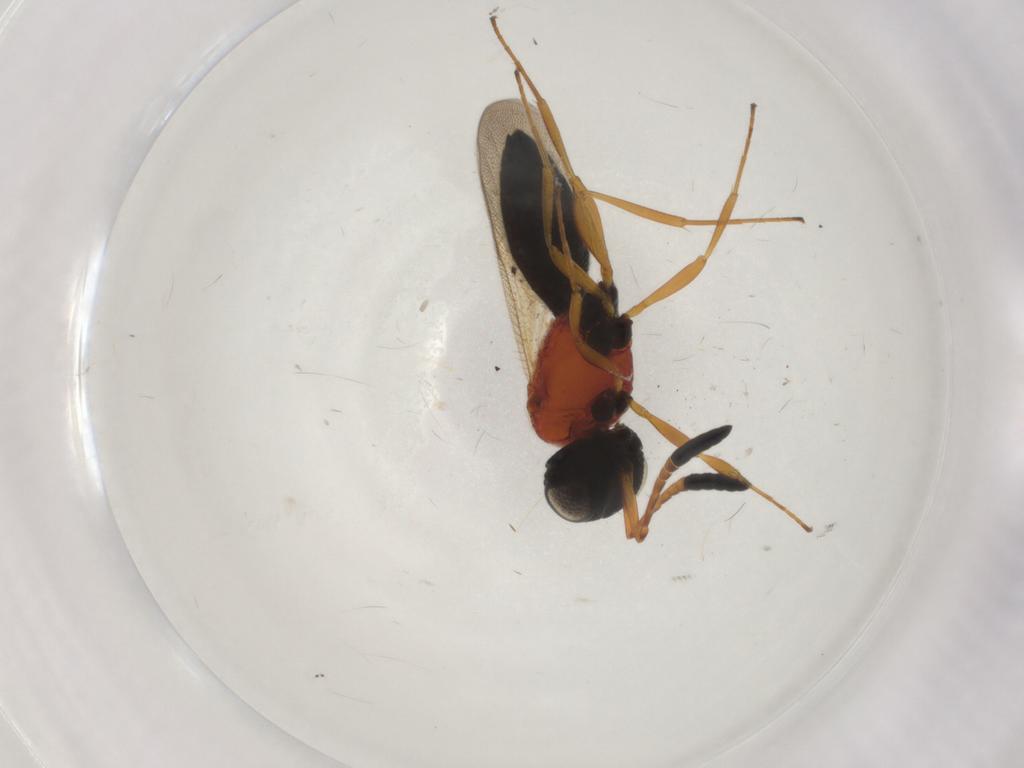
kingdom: Animalia
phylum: Arthropoda
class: Insecta
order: Hymenoptera
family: Scelionidae
